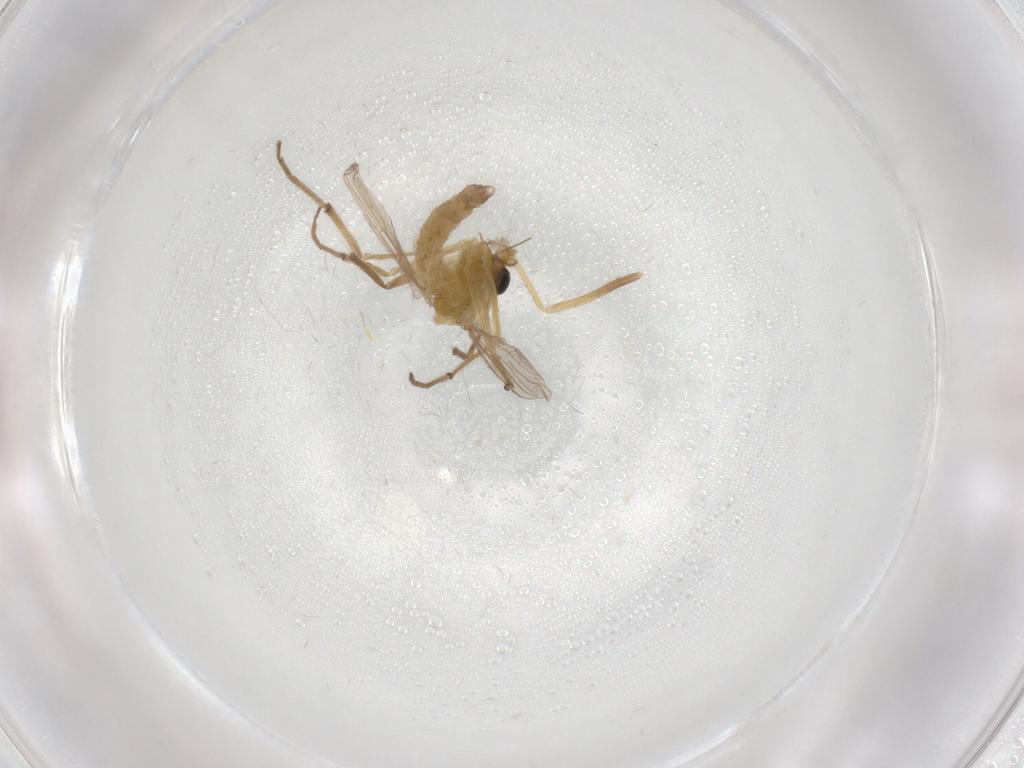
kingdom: Animalia
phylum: Arthropoda
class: Insecta
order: Diptera
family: Chironomidae
